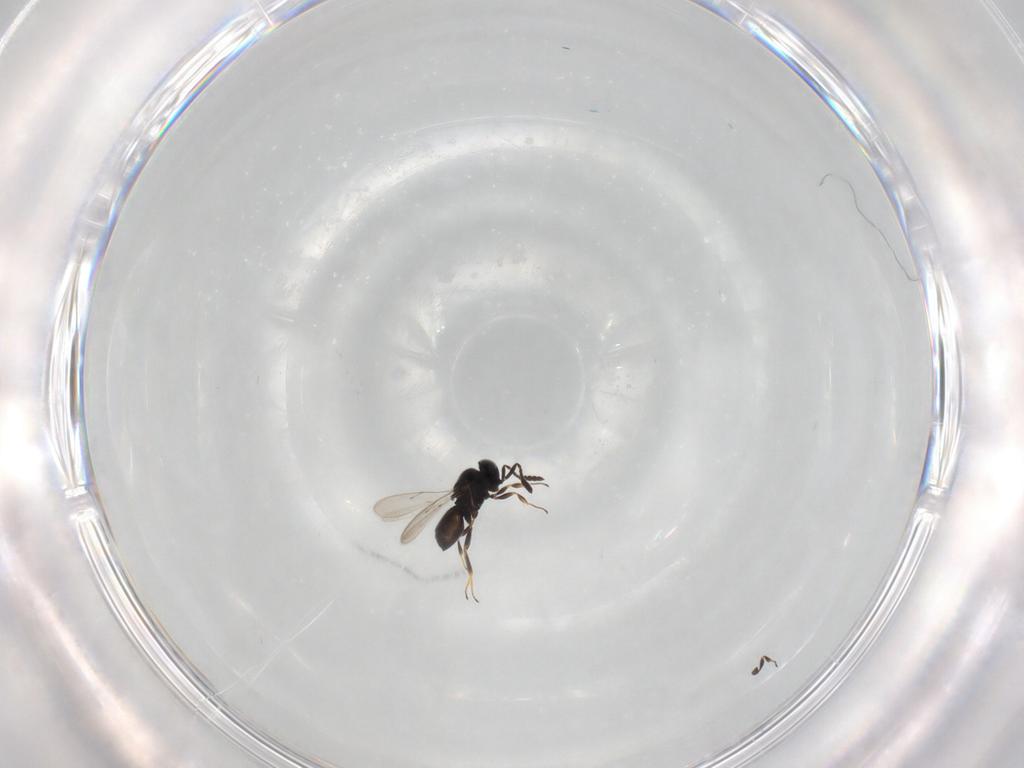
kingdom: Animalia
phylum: Arthropoda
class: Insecta
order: Hymenoptera
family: Scelionidae
